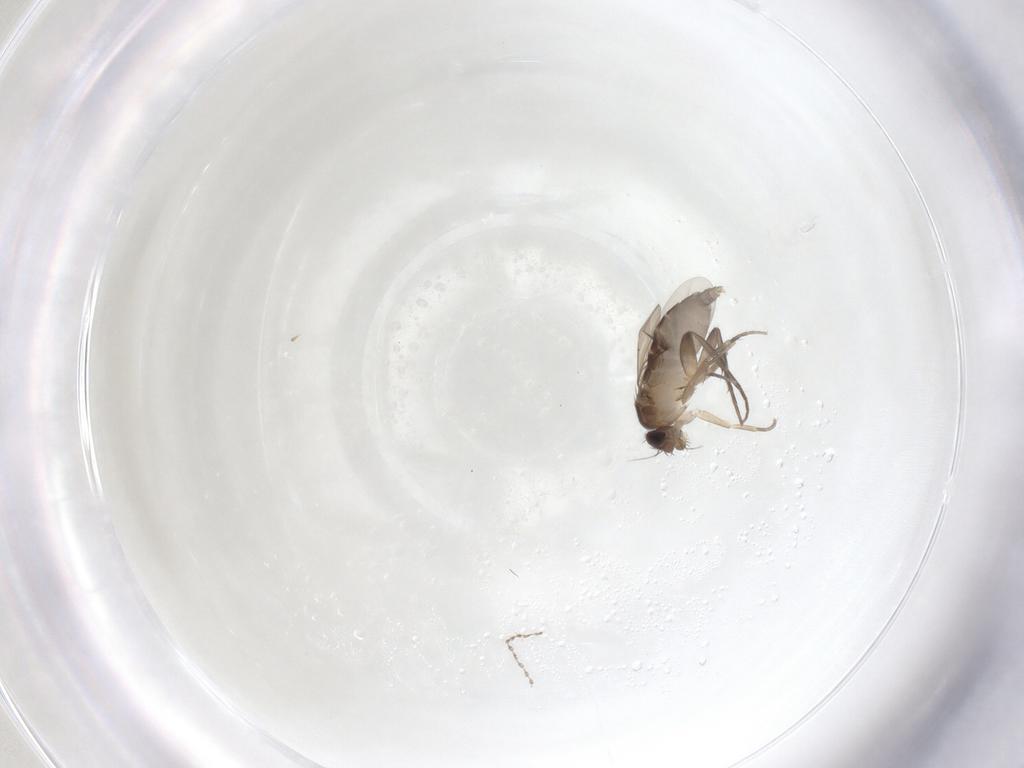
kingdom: Animalia
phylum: Arthropoda
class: Insecta
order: Diptera
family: Phoridae
